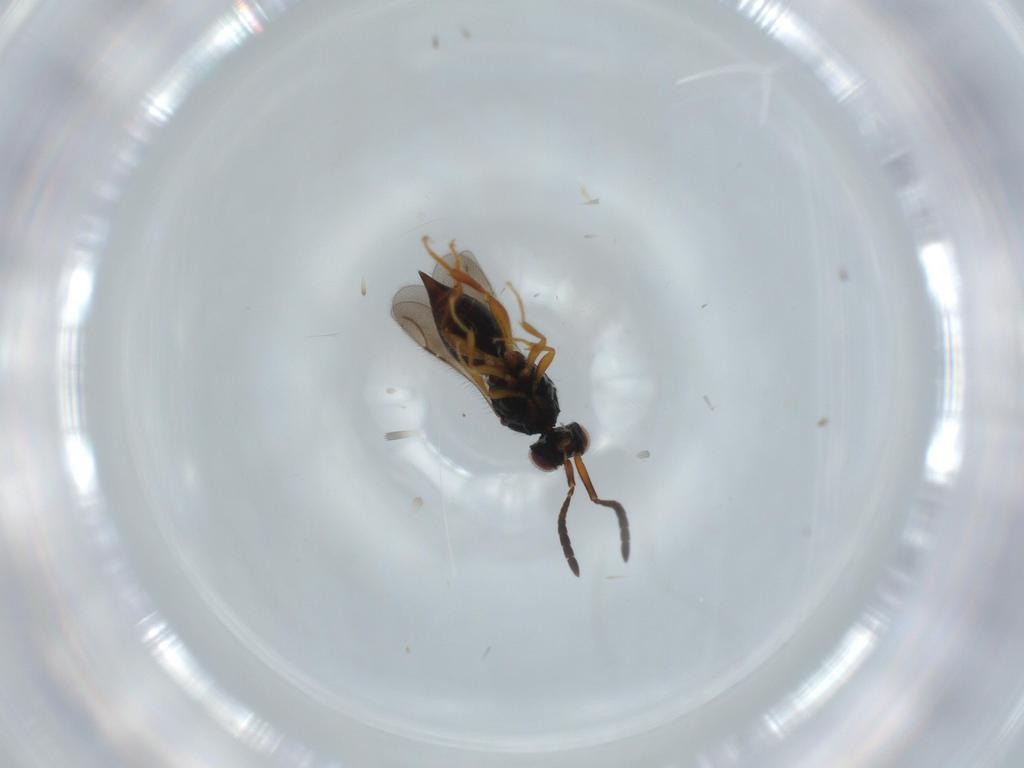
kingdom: Animalia
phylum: Arthropoda
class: Insecta
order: Hymenoptera
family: Ceraphronidae
